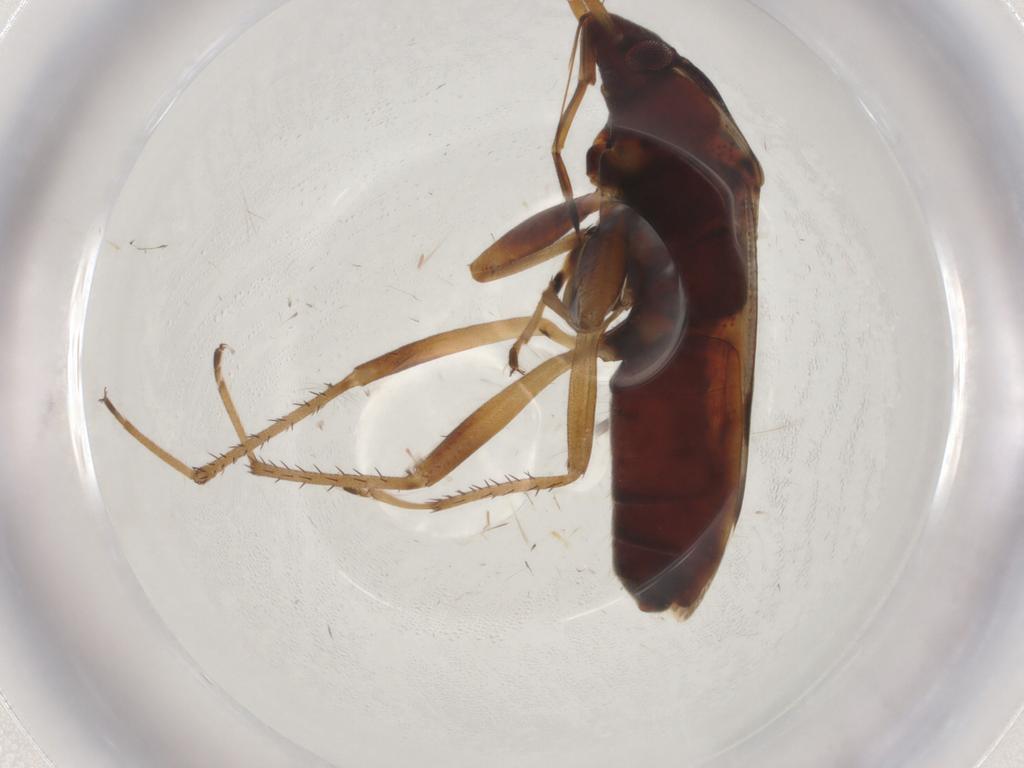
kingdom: Animalia
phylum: Arthropoda
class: Insecta
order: Hemiptera
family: Rhyparochromidae
